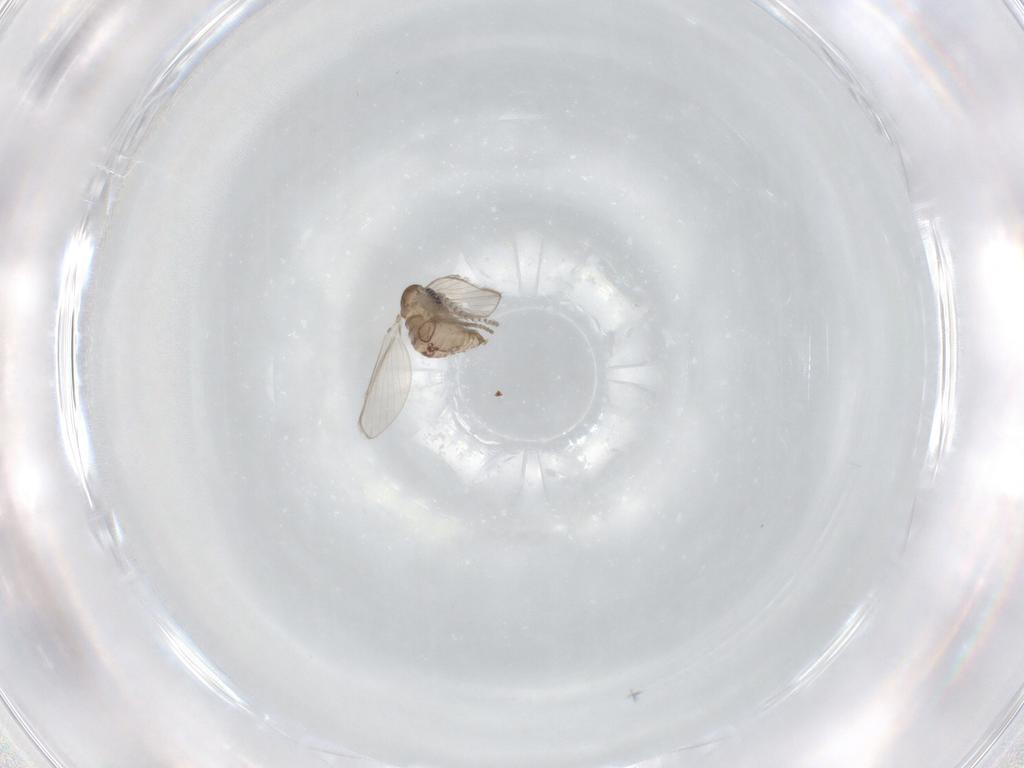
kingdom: Animalia
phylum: Arthropoda
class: Insecta
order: Diptera
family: Psychodidae
